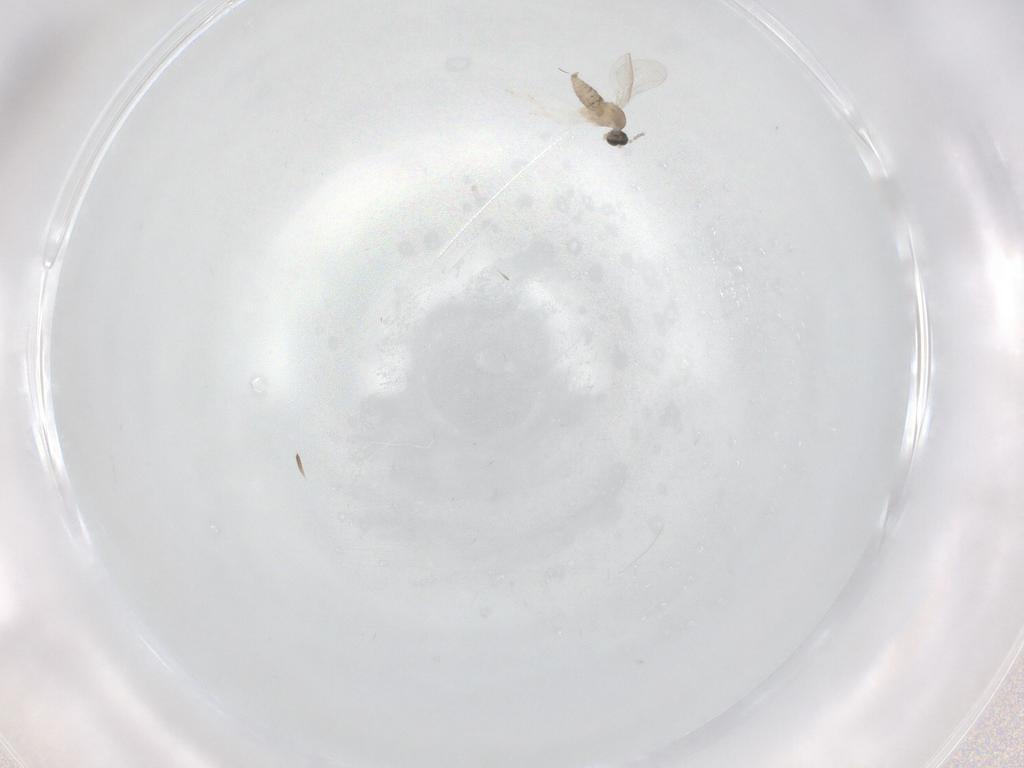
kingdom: Animalia
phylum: Arthropoda
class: Insecta
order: Diptera
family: Cecidomyiidae
